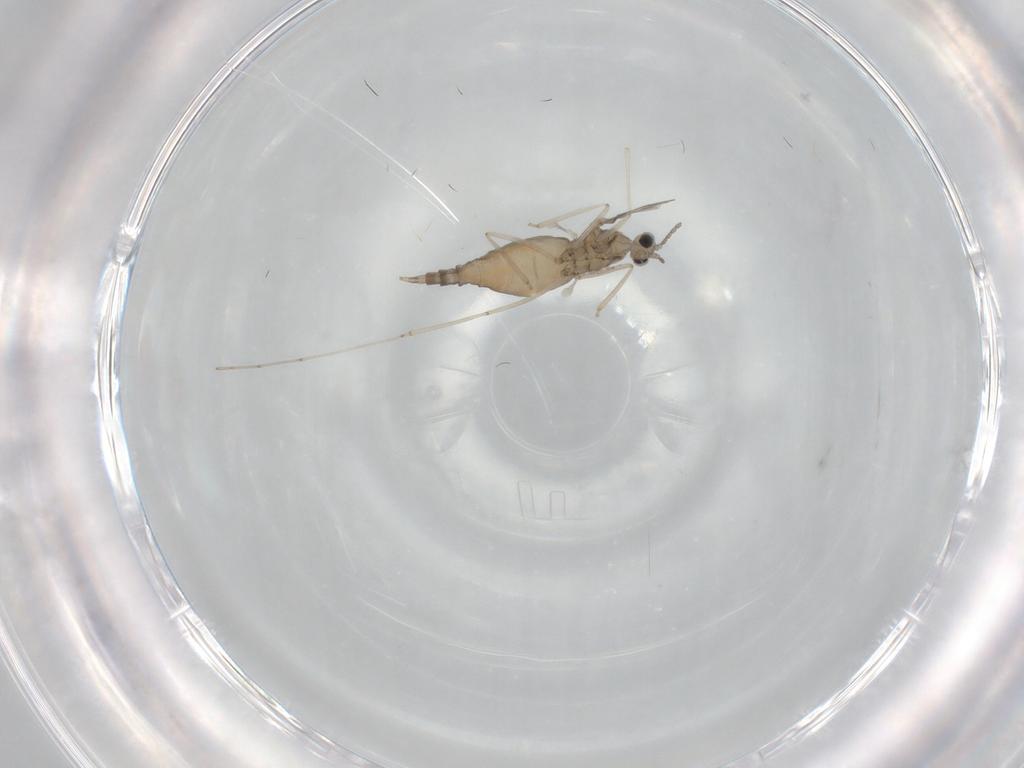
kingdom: Animalia
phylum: Arthropoda
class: Insecta
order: Diptera
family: Cecidomyiidae
